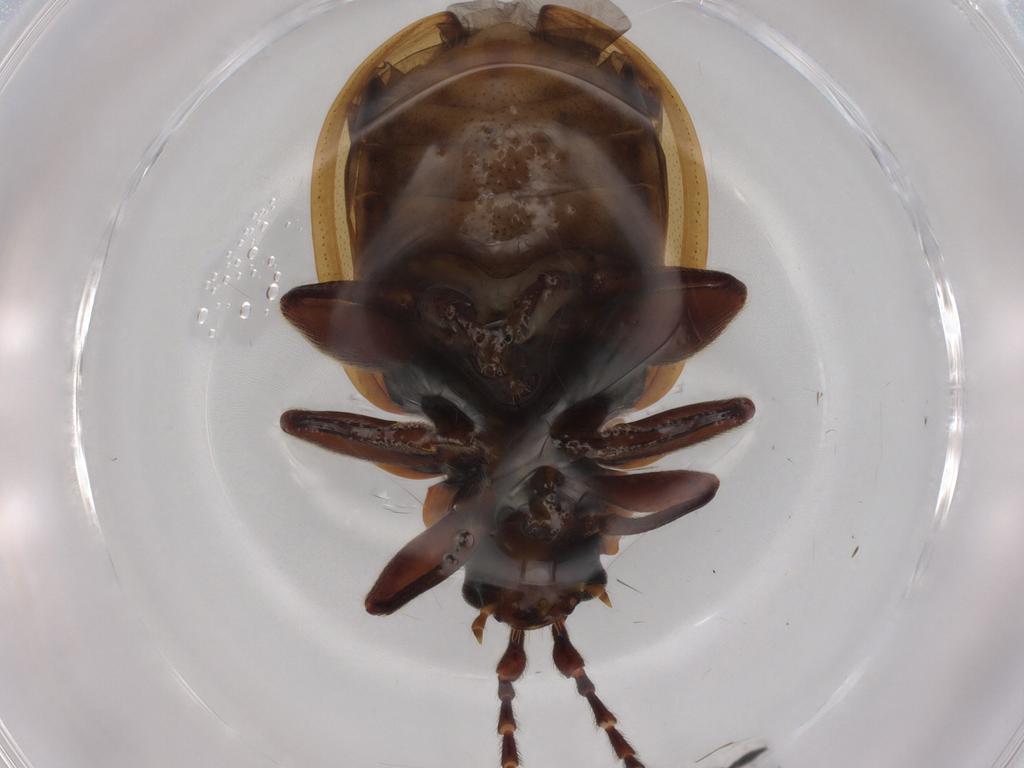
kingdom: Animalia
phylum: Arthropoda
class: Insecta
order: Coleoptera
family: Chrysomelidae
